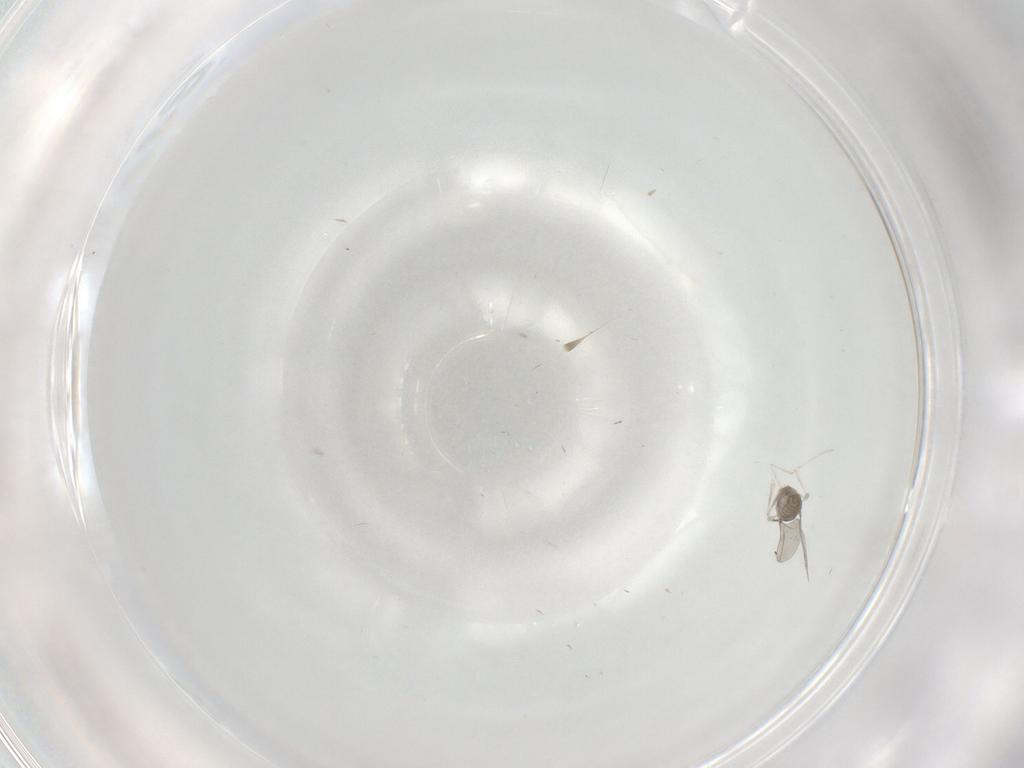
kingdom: Animalia
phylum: Arthropoda
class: Insecta
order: Diptera
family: Cecidomyiidae
